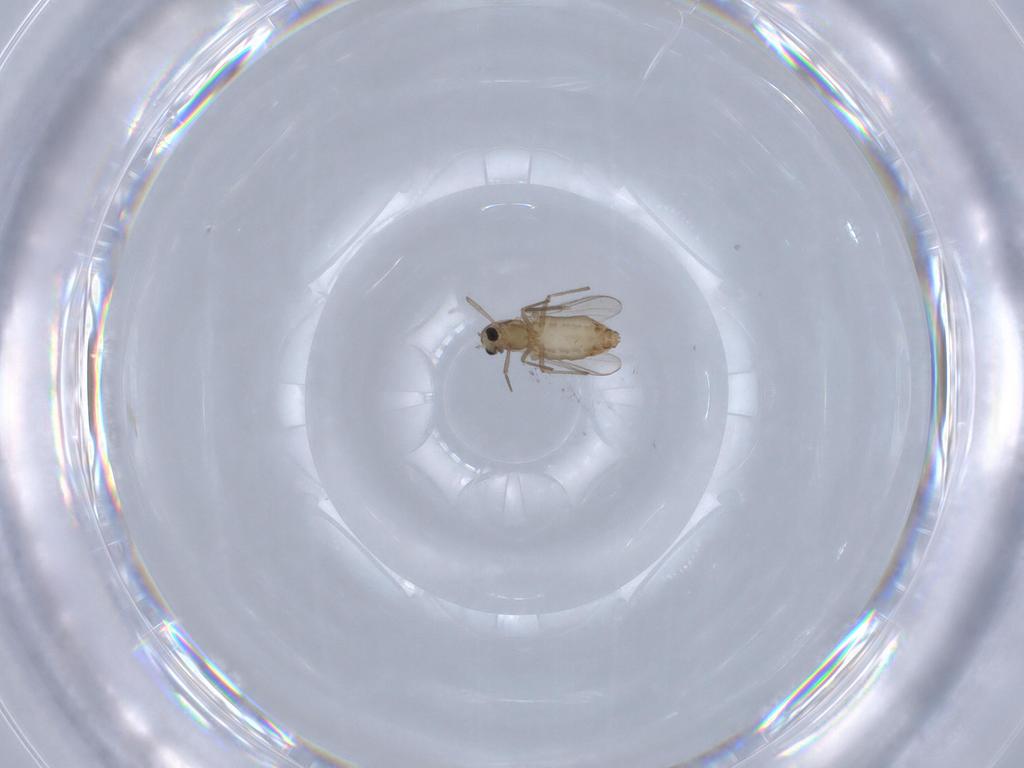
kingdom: Animalia
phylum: Arthropoda
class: Insecta
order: Diptera
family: Chironomidae
